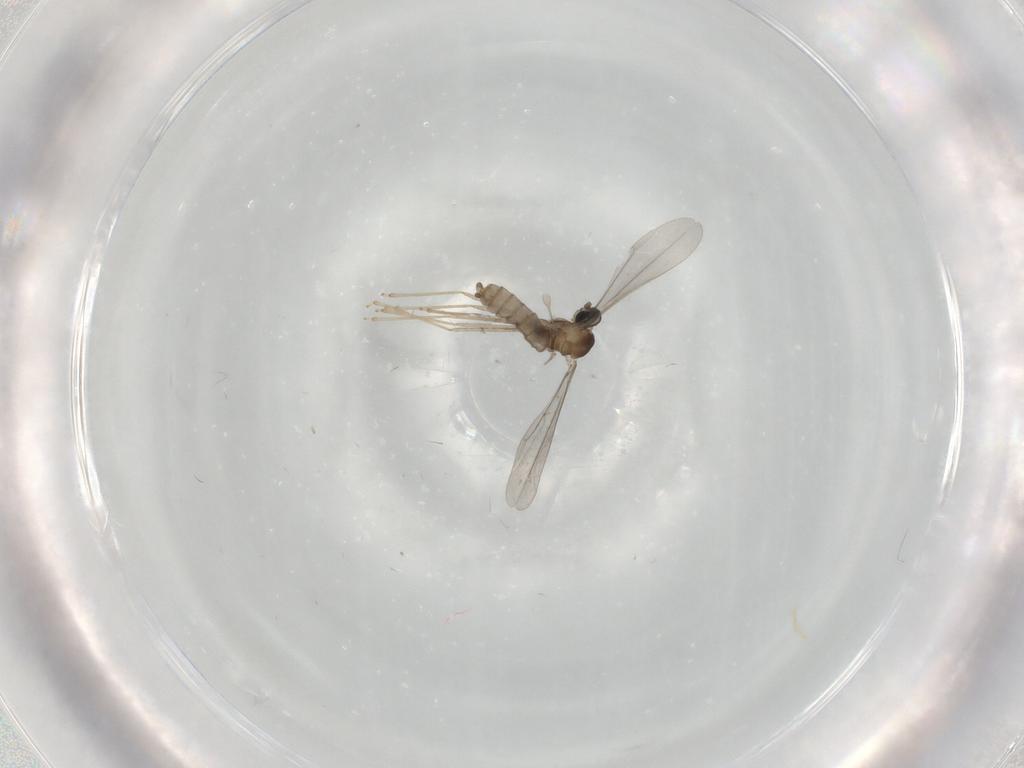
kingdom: Animalia
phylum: Arthropoda
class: Insecta
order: Diptera
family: Cecidomyiidae
